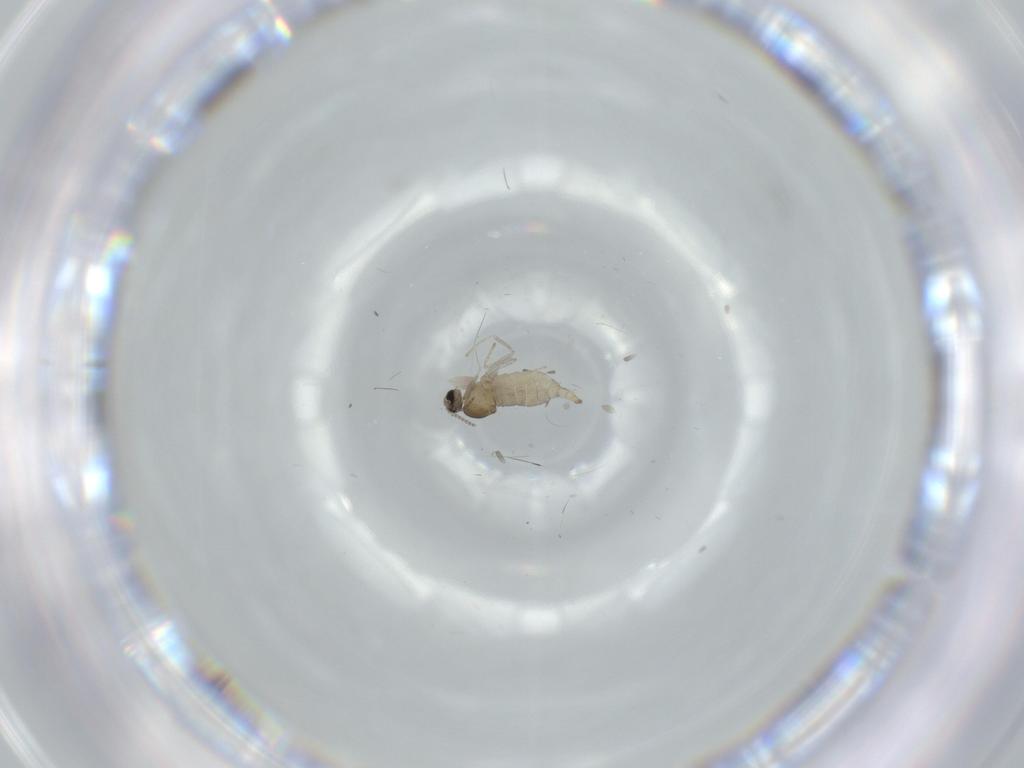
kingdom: Animalia
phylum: Arthropoda
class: Insecta
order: Diptera
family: Cecidomyiidae
